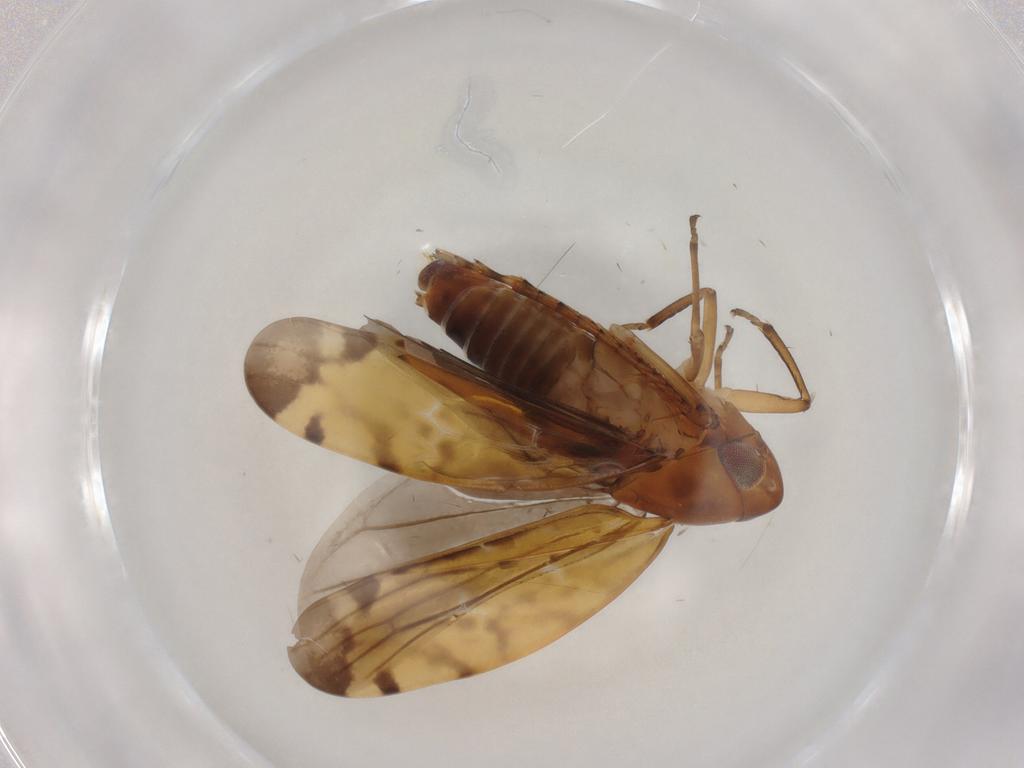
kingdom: Animalia
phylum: Arthropoda
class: Insecta
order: Hemiptera
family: Cicadellidae
